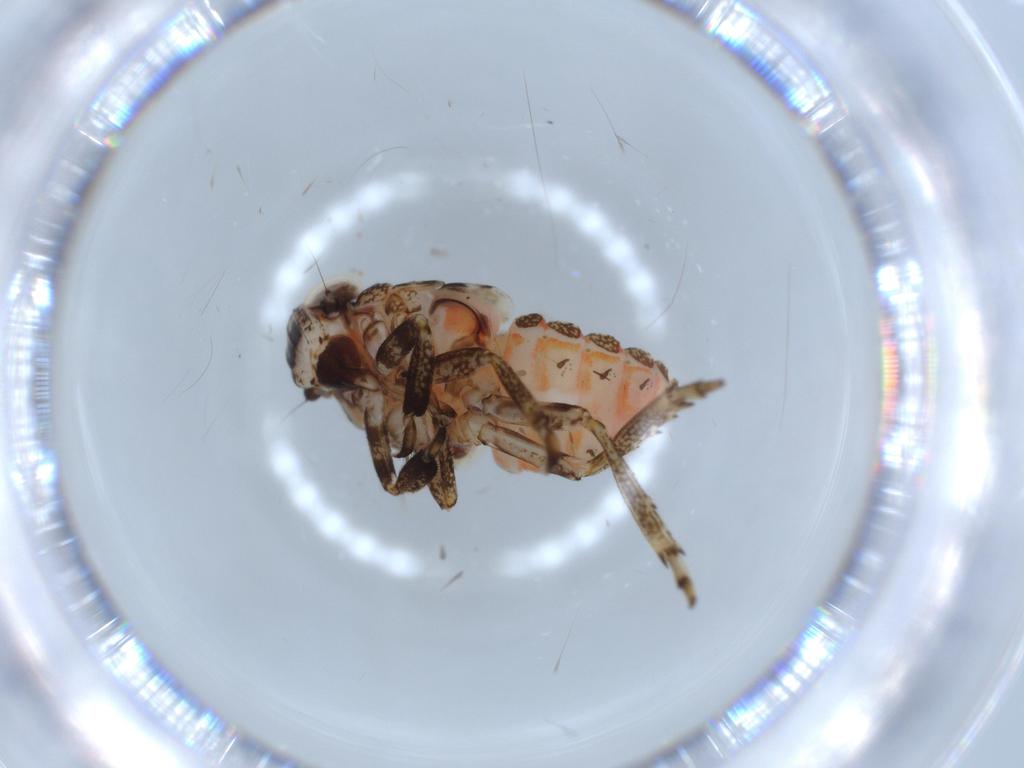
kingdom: Animalia
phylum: Arthropoda
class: Insecta
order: Hemiptera
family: Issidae
